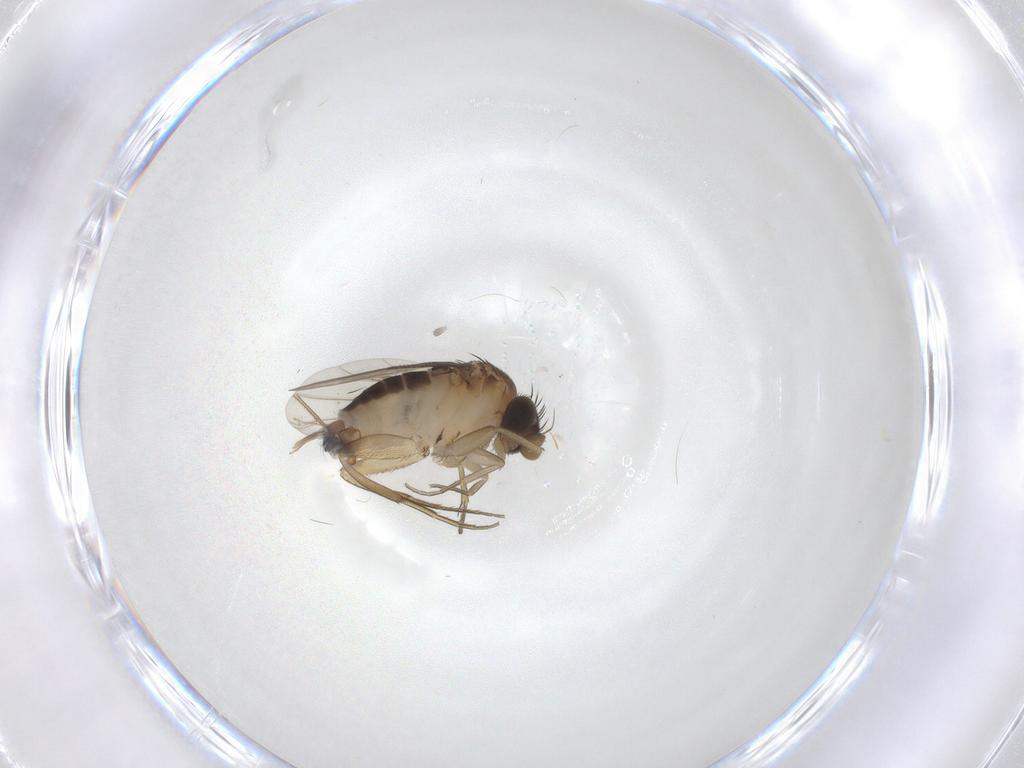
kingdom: Animalia
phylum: Arthropoda
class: Insecta
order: Diptera
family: Phoridae
